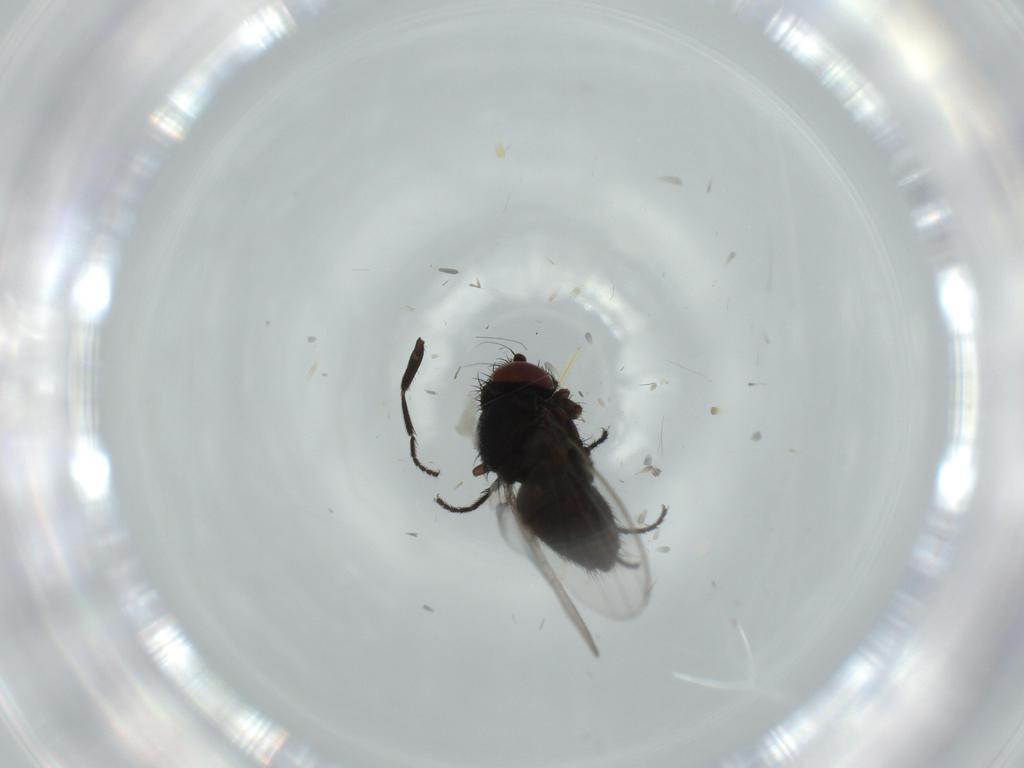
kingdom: Animalia
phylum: Arthropoda
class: Insecta
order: Diptera
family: Milichiidae
